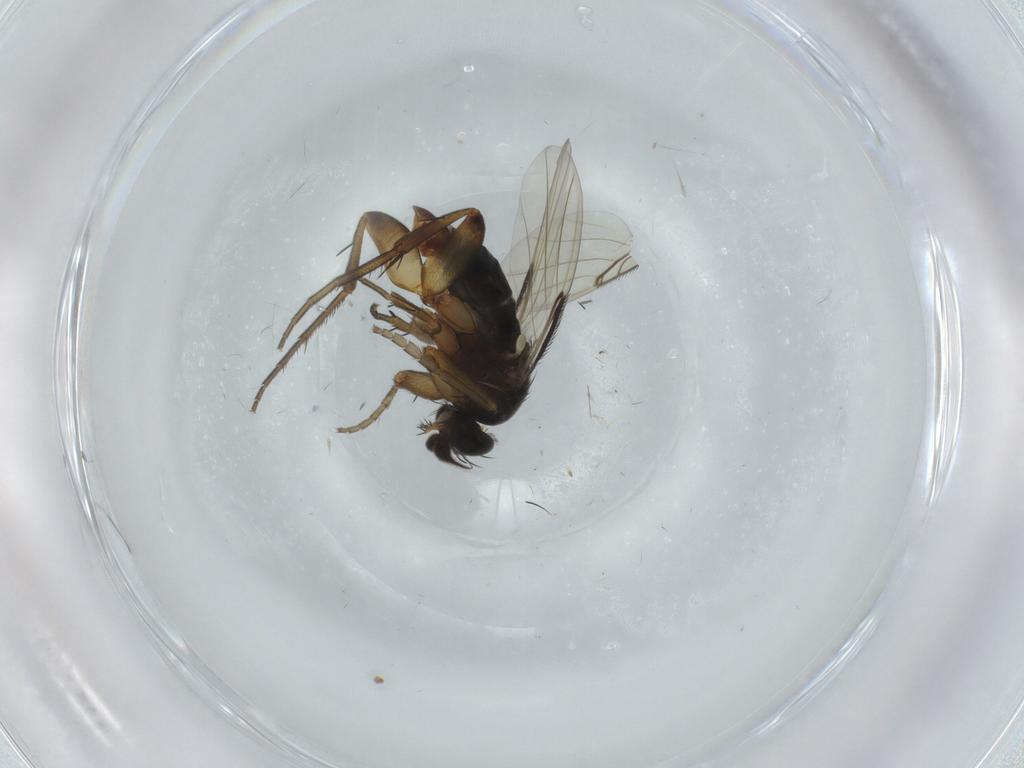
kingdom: Animalia
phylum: Arthropoda
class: Insecta
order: Diptera
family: Phoridae
